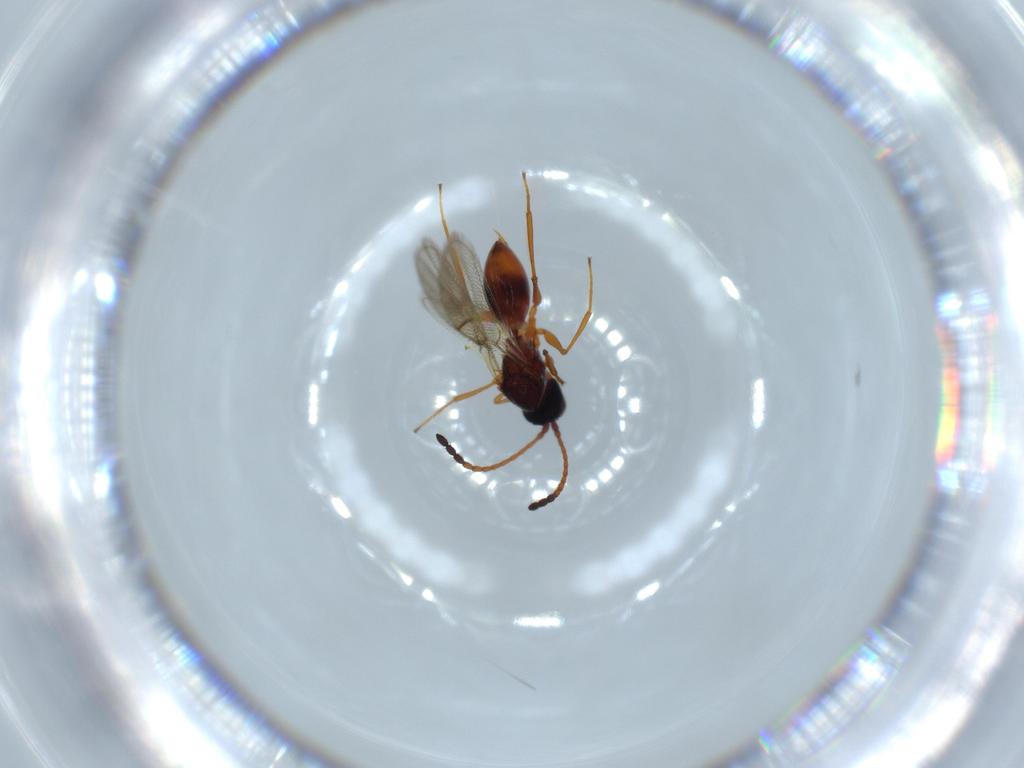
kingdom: Animalia
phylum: Arthropoda
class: Insecta
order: Hymenoptera
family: Figitidae
